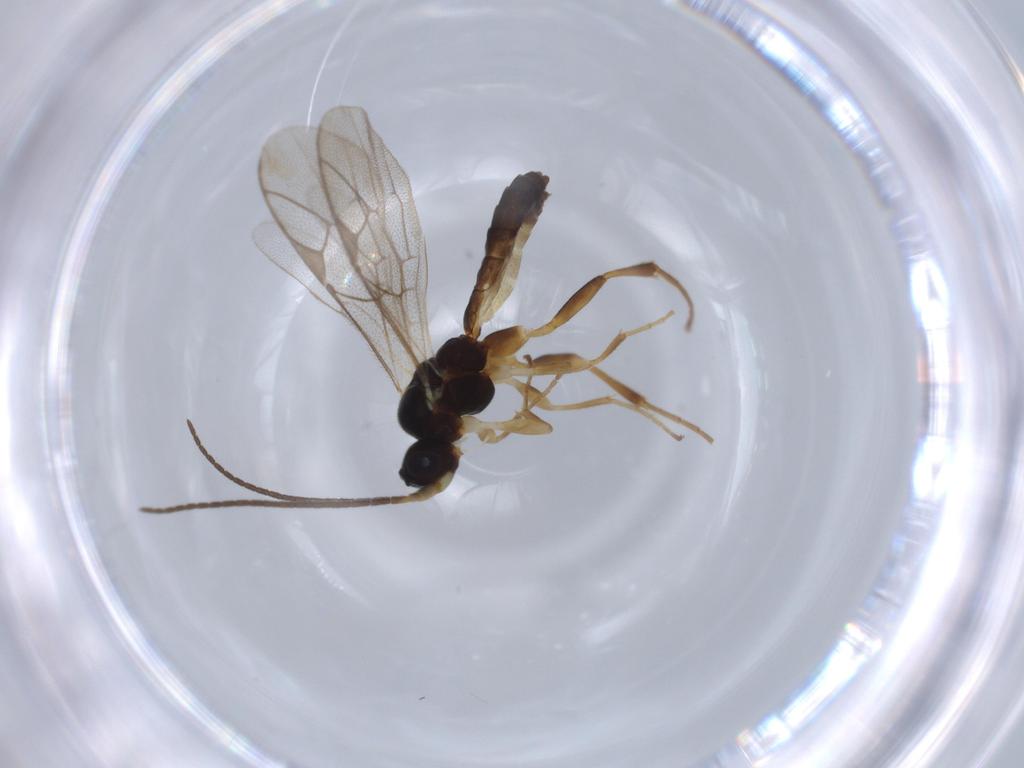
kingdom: Animalia
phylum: Arthropoda
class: Insecta
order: Hymenoptera
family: Ichneumonidae
